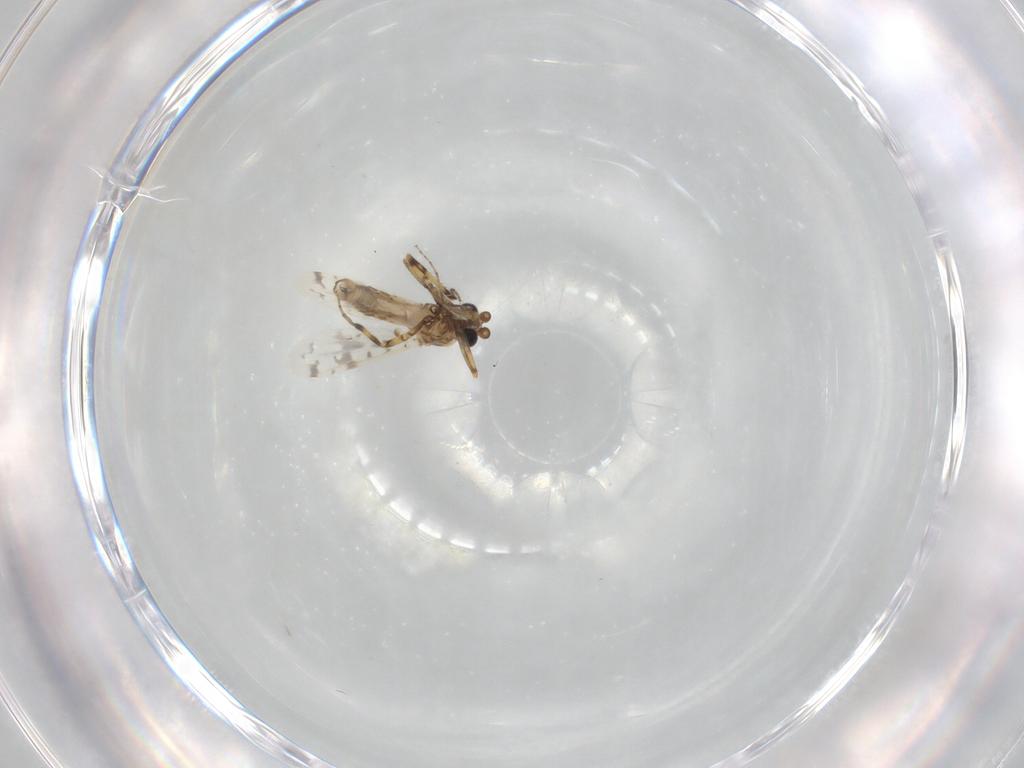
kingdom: Animalia
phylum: Arthropoda
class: Insecta
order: Diptera
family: Ceratopogonidae
